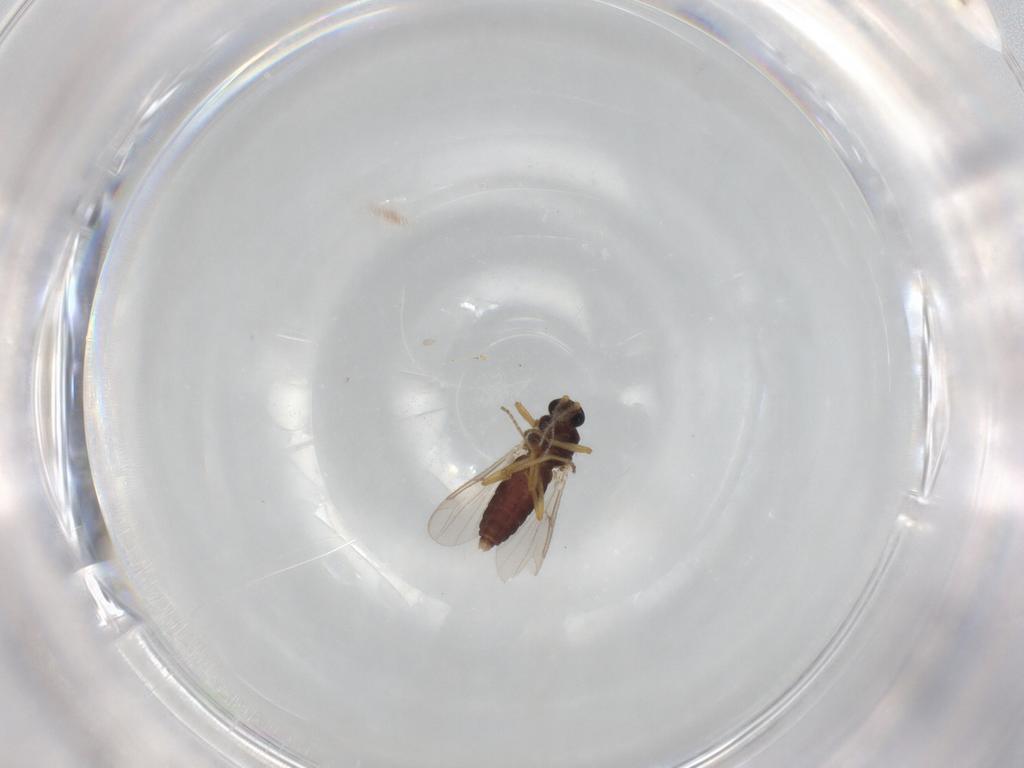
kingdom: Animalia
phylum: Arthropoda
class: Insecta
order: Diptera
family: Ceratopogonidae
